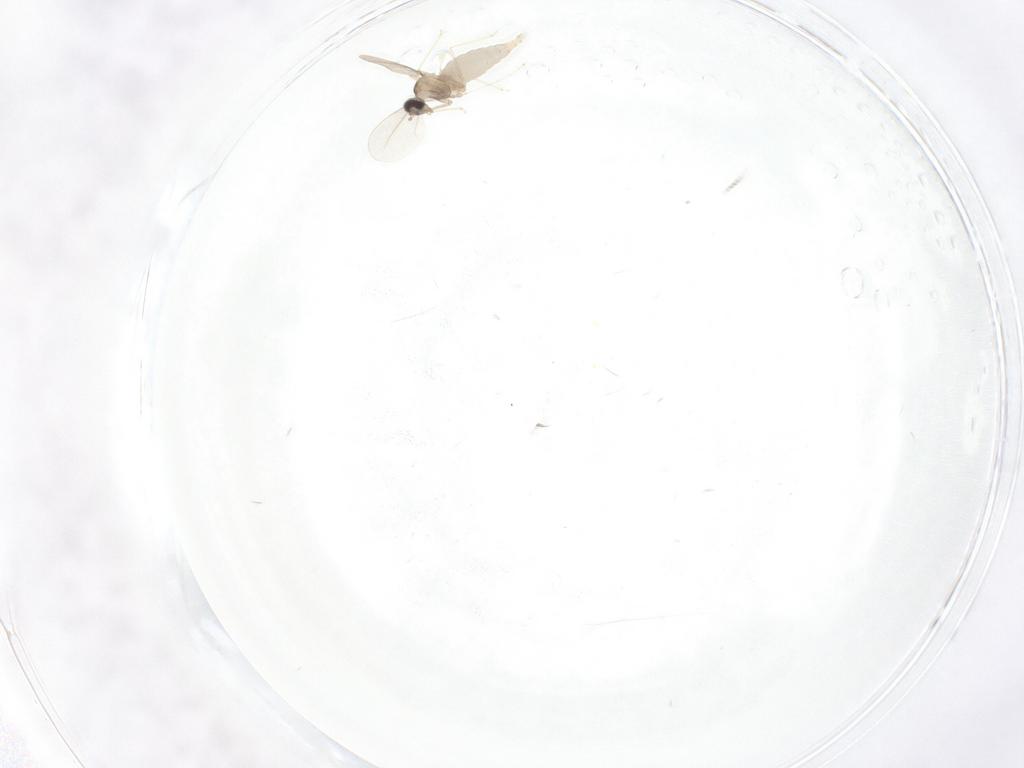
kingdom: Animalia
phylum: Arthropoda
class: Insecta
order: Diptera
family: Cecidomyiidae
